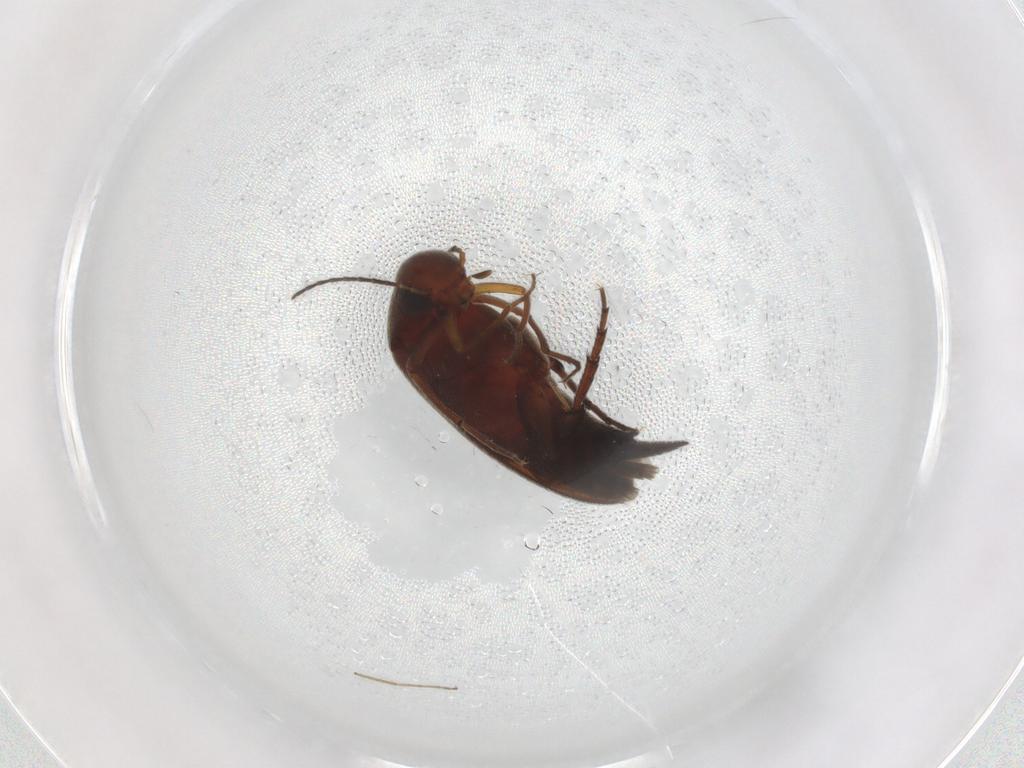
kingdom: Animalia
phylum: Arthropoda
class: Insecta
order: Coleoptera
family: Mordellidae
